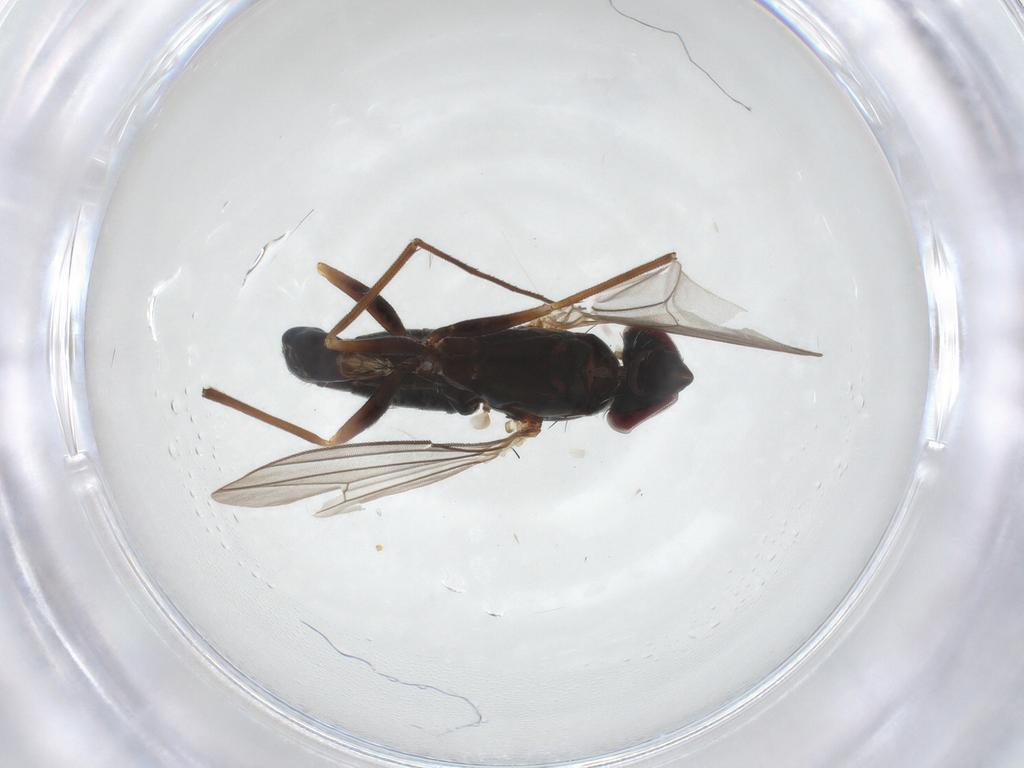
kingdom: Animalia
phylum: Arthropoda
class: Insecta
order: Diptera
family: Dolichopodidae
